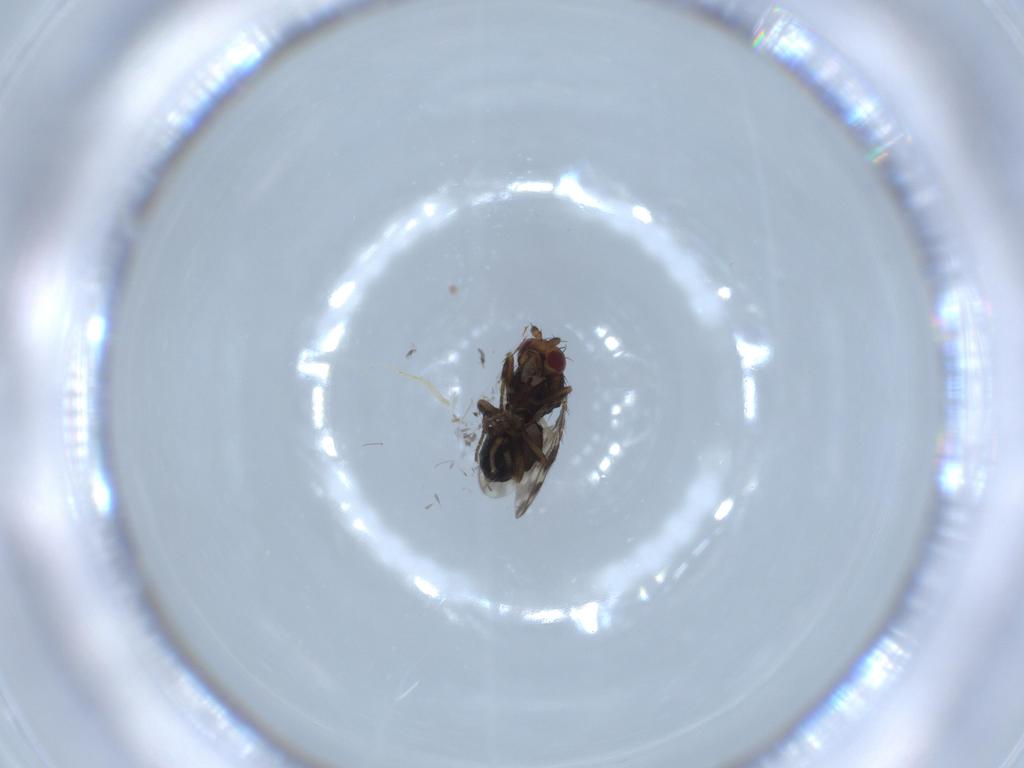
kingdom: Animalia
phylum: Arthropoda
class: Insecta
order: Diptera
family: Sphaeroceridae
